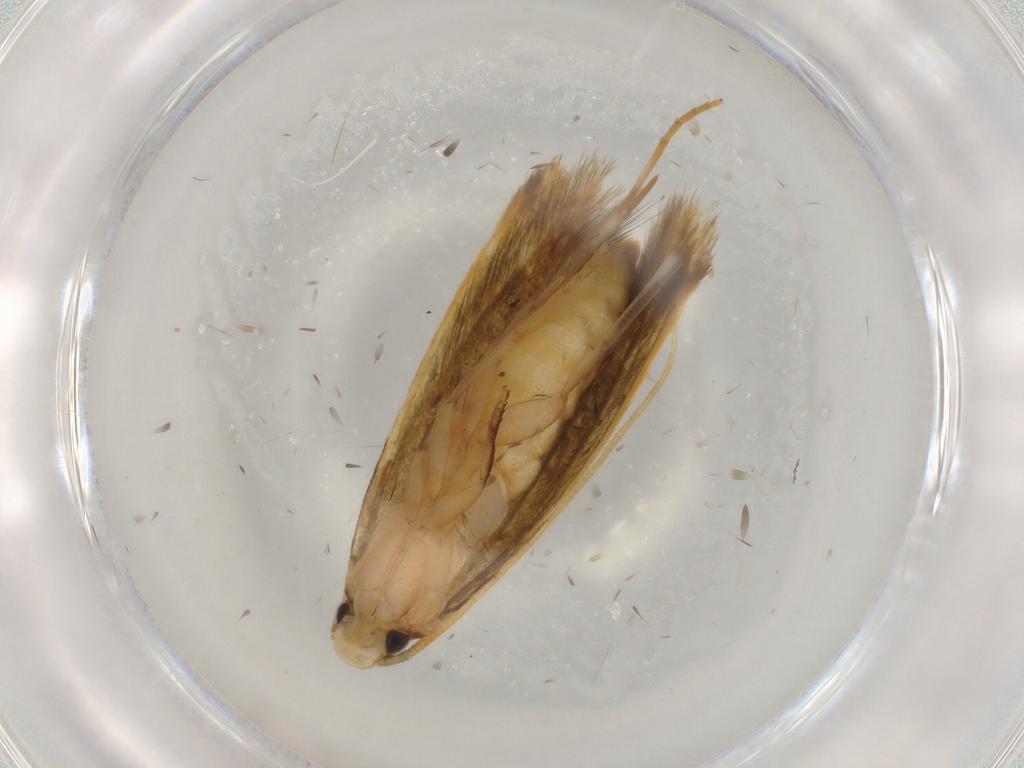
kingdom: Animalia
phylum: Arthropoda
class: Insecta
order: Lepidoptera
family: Tineidae
